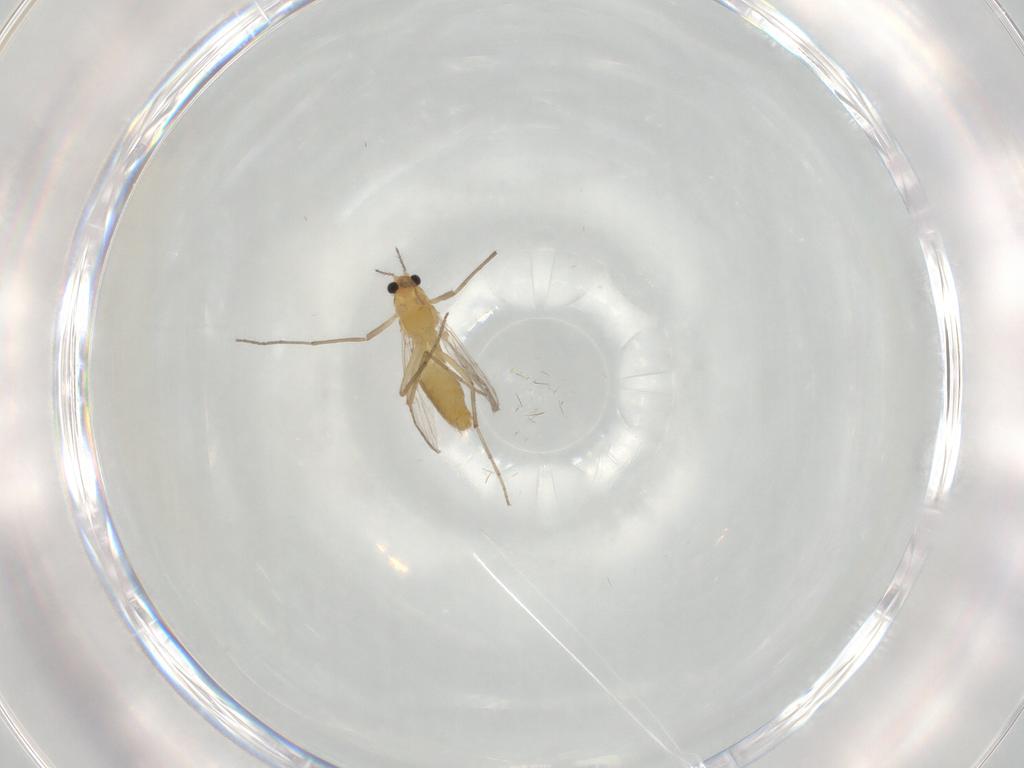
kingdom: Animalia
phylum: Arthropoda
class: Insecta
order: Diptera
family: Chironomidae
